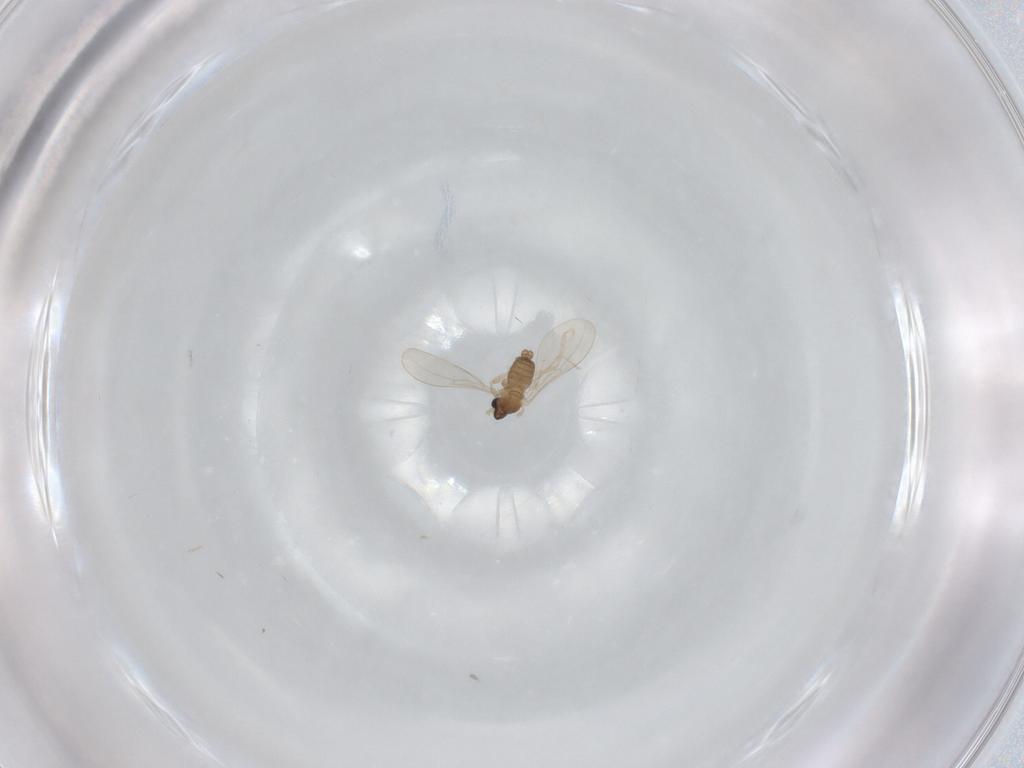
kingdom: Animalia
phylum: Arthropoda
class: Insecta
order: Diptera
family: Cecidomyiidae
